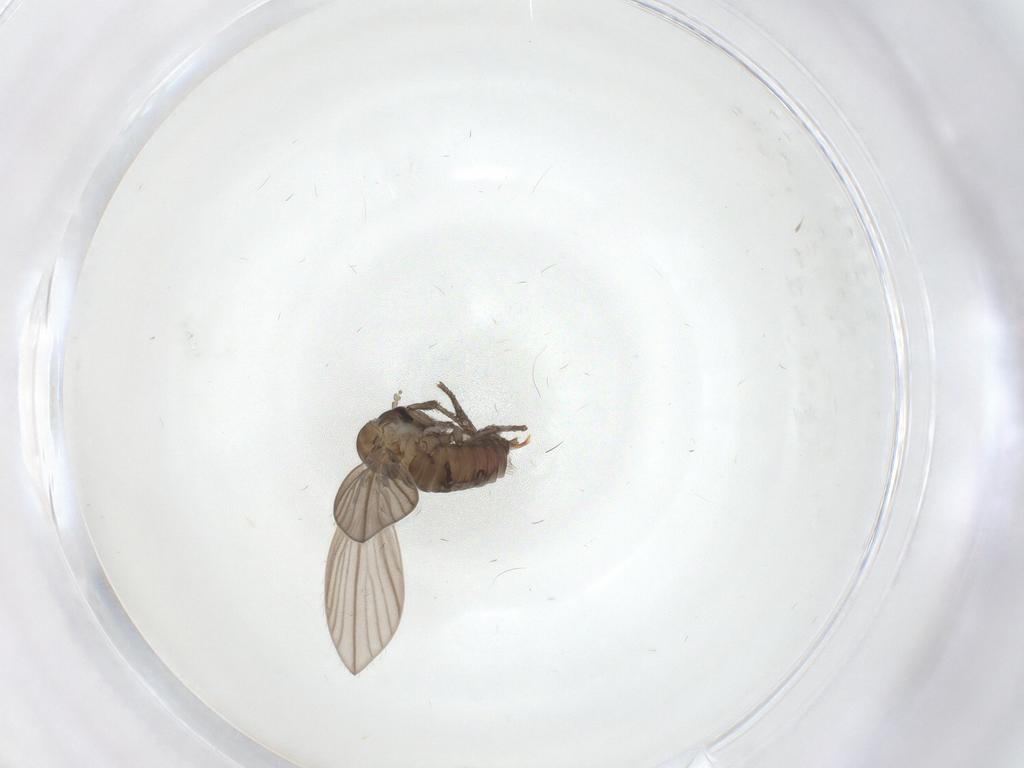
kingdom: Animalia
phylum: Arthropoda
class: Insecta
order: Diptera
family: Psychodidae
